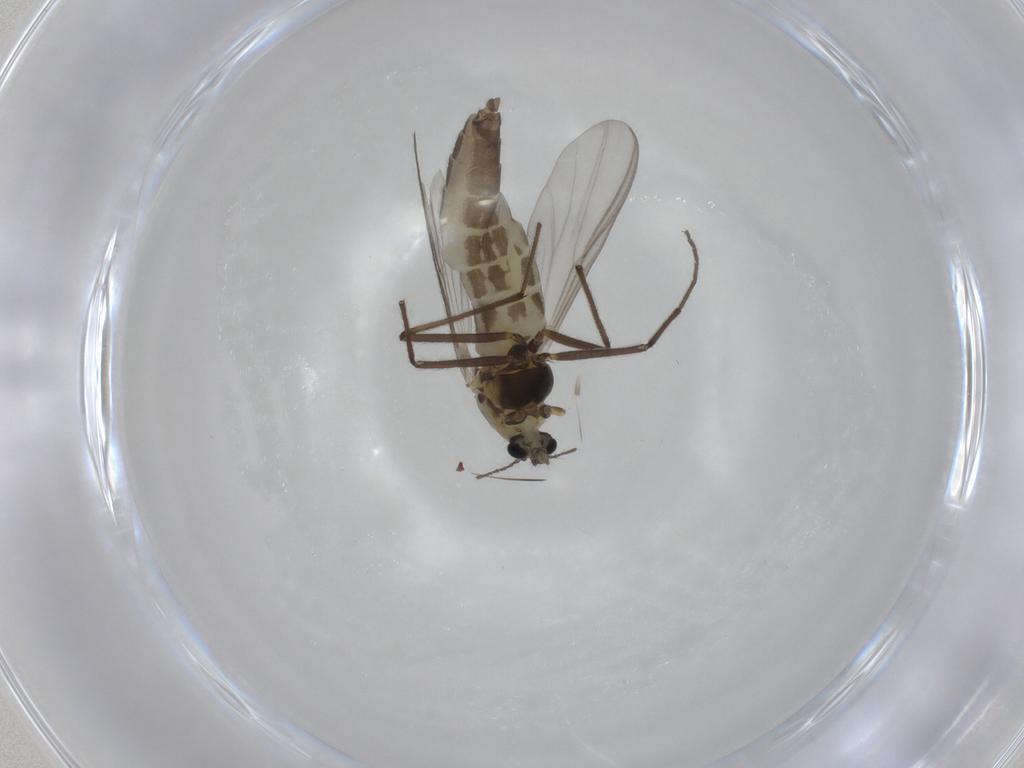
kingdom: Animalia
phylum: Arthropoda
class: Insecta
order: Diptera
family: Chironomidae
